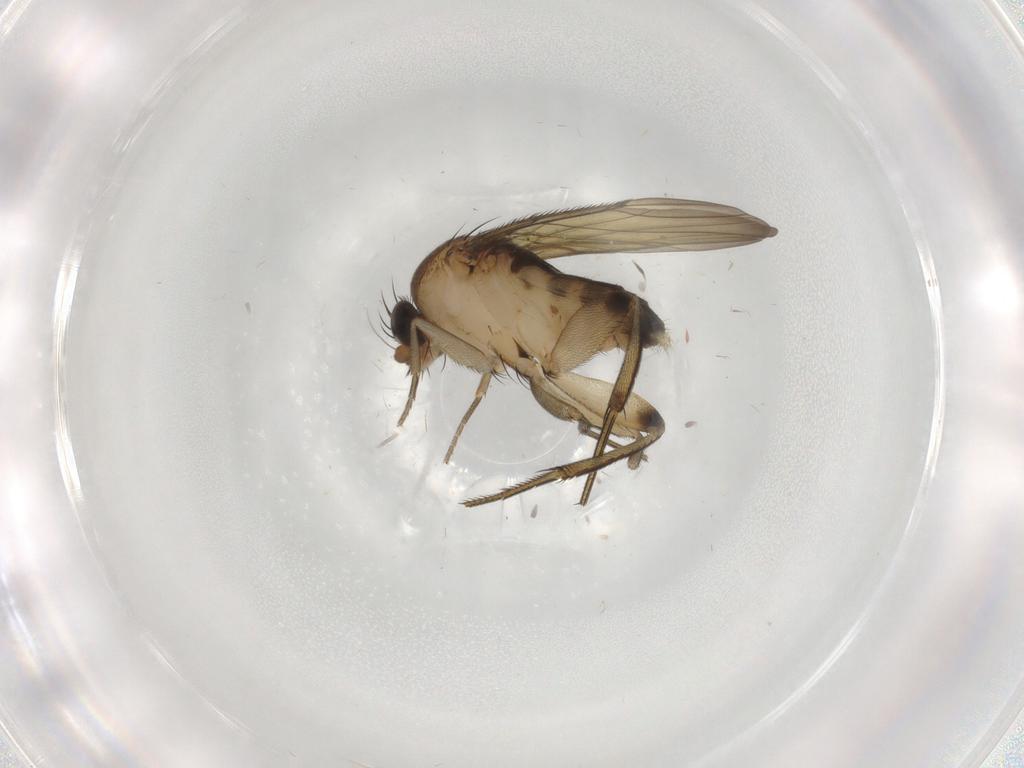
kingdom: Animalia
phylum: Arthropoda
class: Insecta
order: Diptera
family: Phoridae
